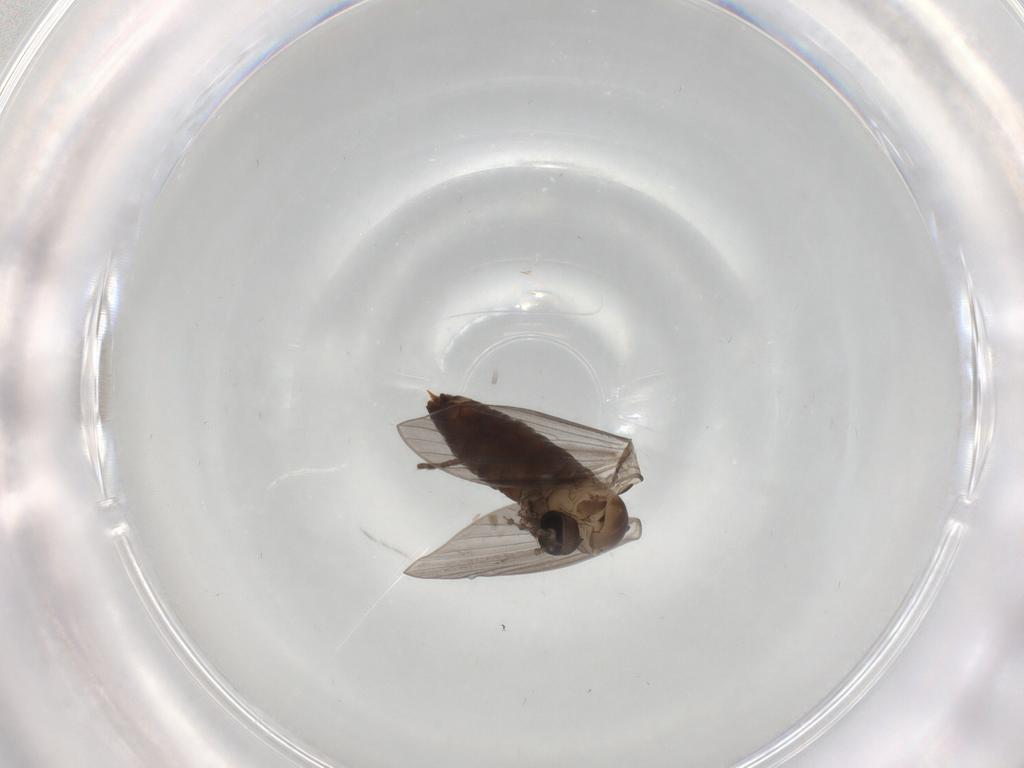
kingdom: Animalia
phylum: Arthropoda
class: Insecta
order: Diptera
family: Psychodidae
